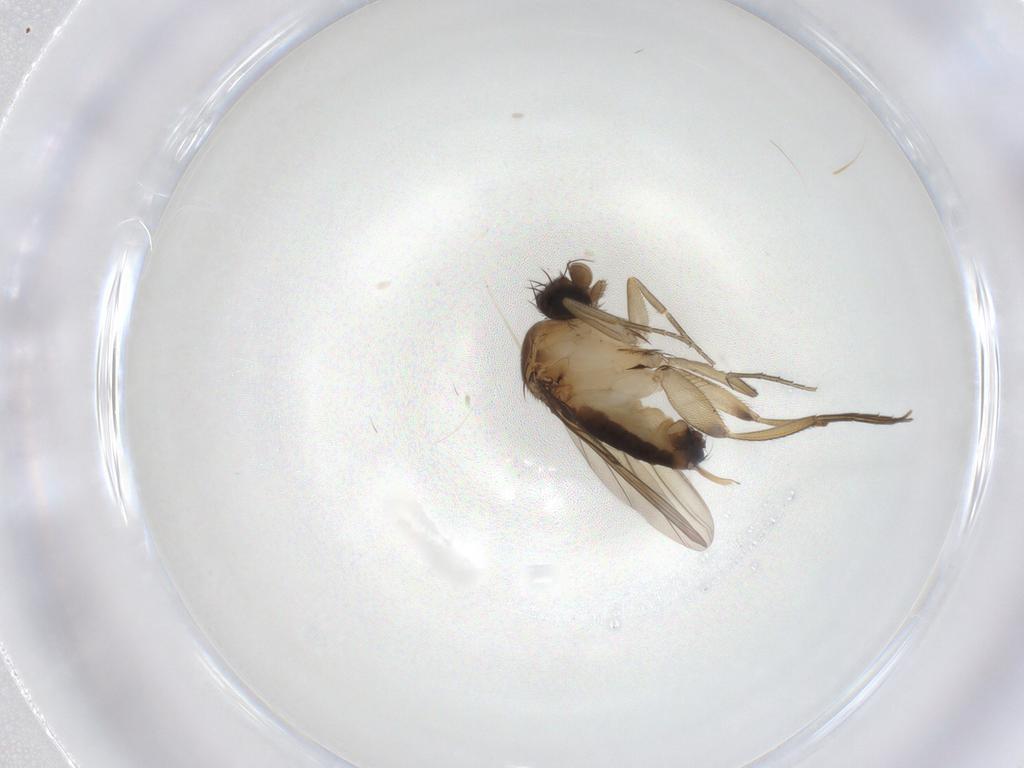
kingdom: Animalia
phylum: Arthropoda
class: Insecta
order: Diptera
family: Phoridae
